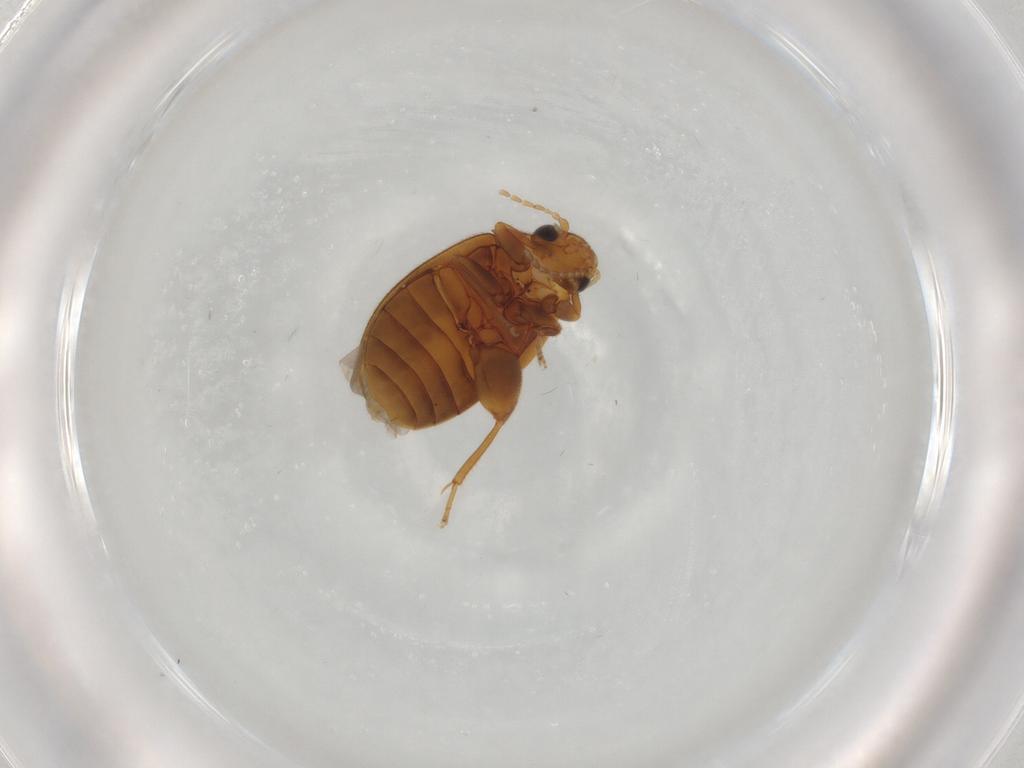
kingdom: Animalia
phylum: Arthropoda
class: Insecta
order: Coleoptera
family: Scirtidae
